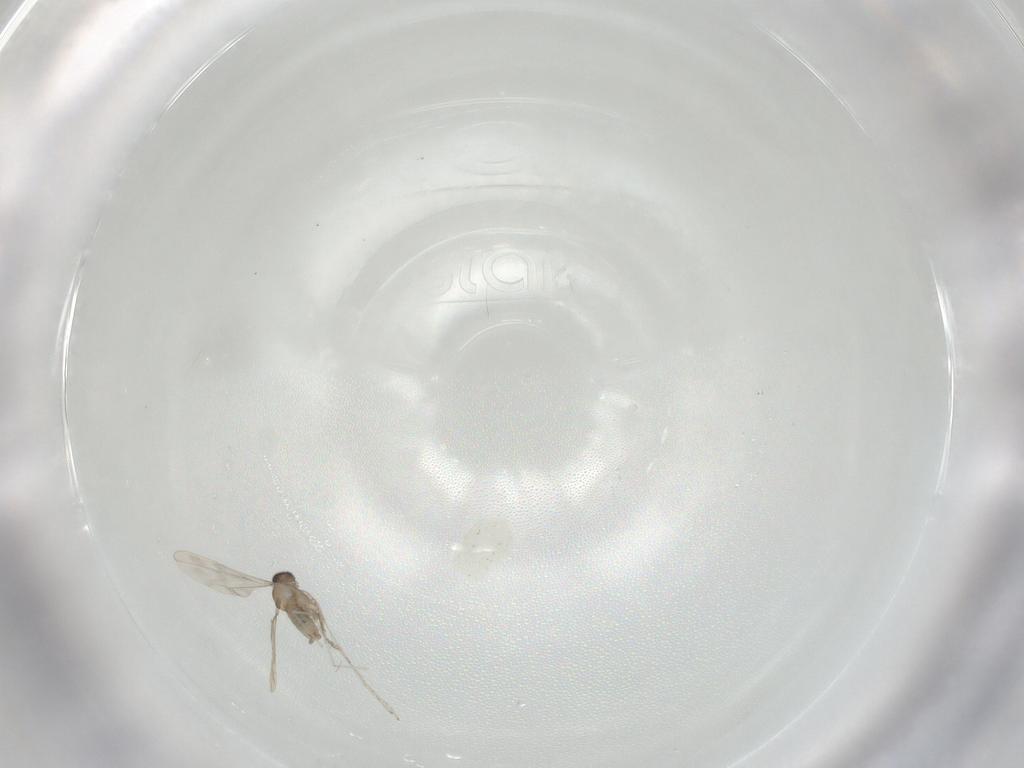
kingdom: Animalia
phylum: Arthropoda
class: Insecta
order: Diptera
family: Cecidomyiidae
